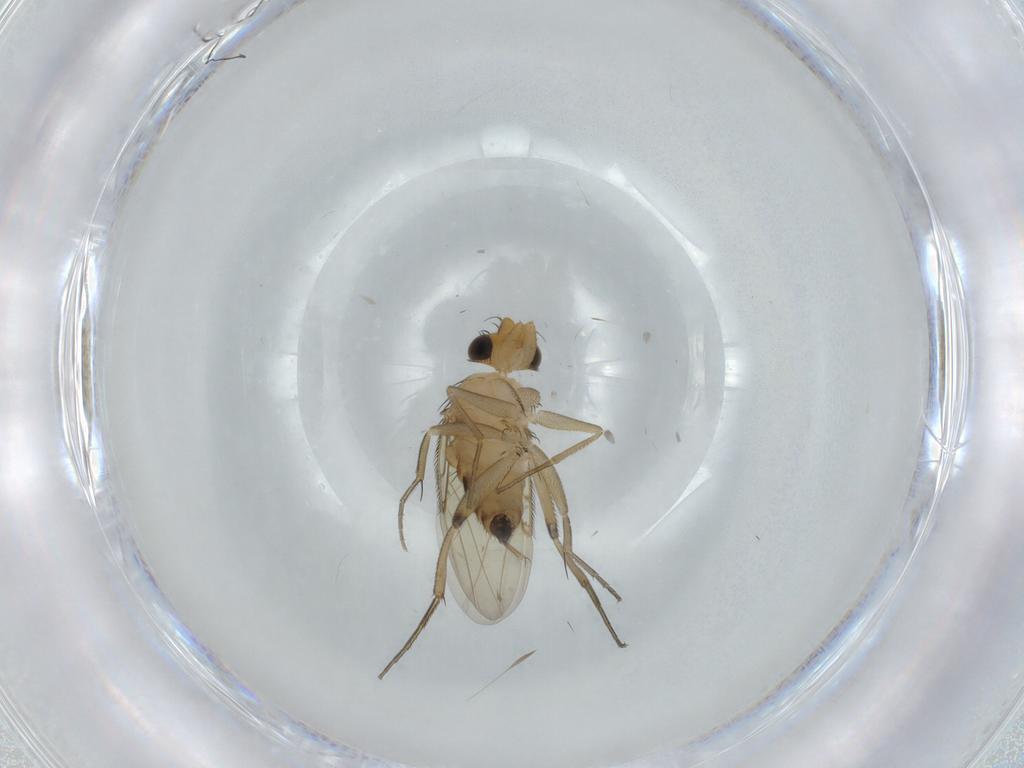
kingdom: Animalia
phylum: Arthropoda
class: Insecta
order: Diptera
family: Phoridae
